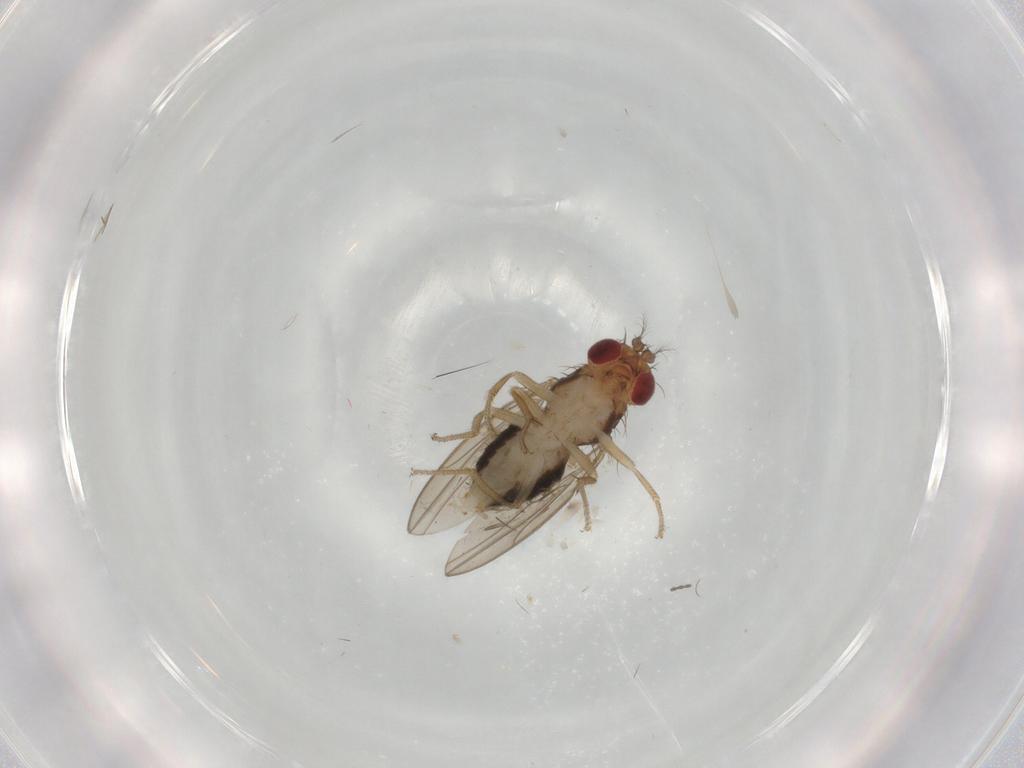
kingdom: Animalia
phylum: Arthropoda
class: Insecta
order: Diptera
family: Drosophilidae
